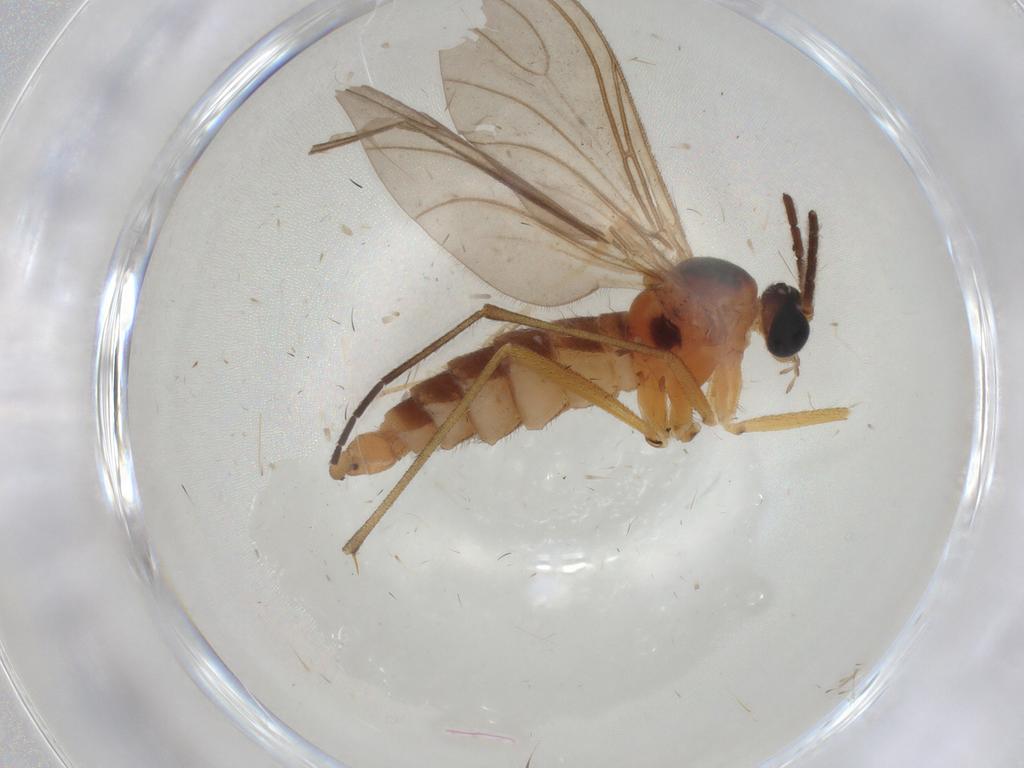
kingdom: Animalia
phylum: Arthropoda
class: Insecta
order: Diptera
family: Sciaridae
